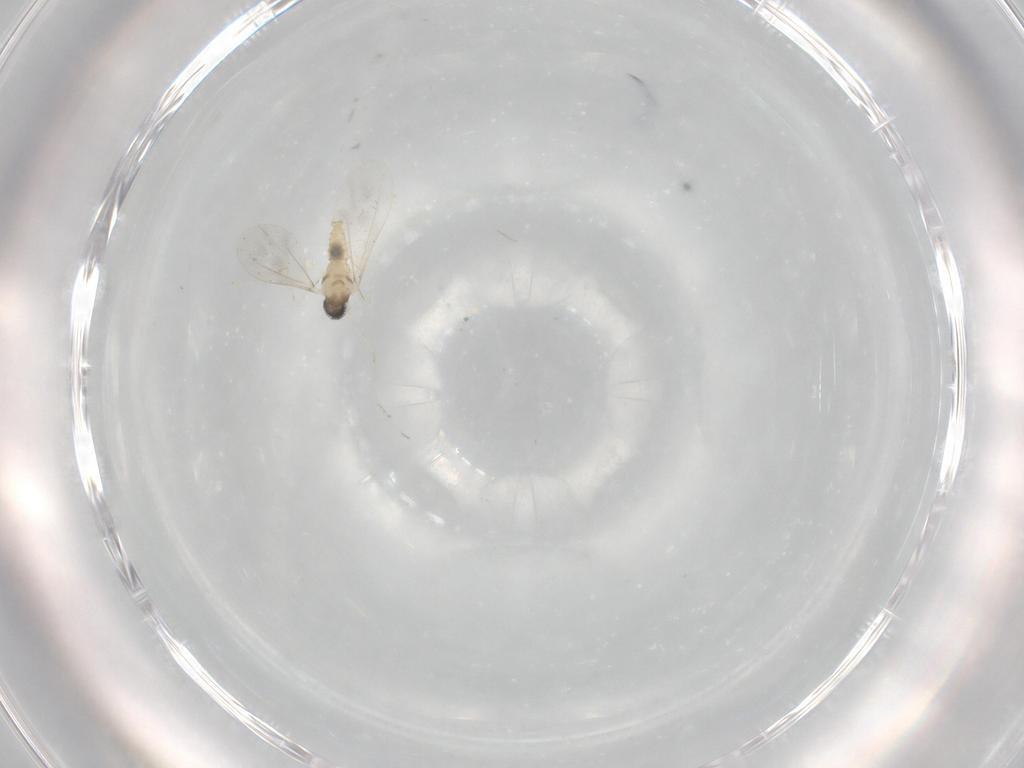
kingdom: Animalia
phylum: Arthropoda
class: Insecta
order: Diptera
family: Cecidomyiidae
